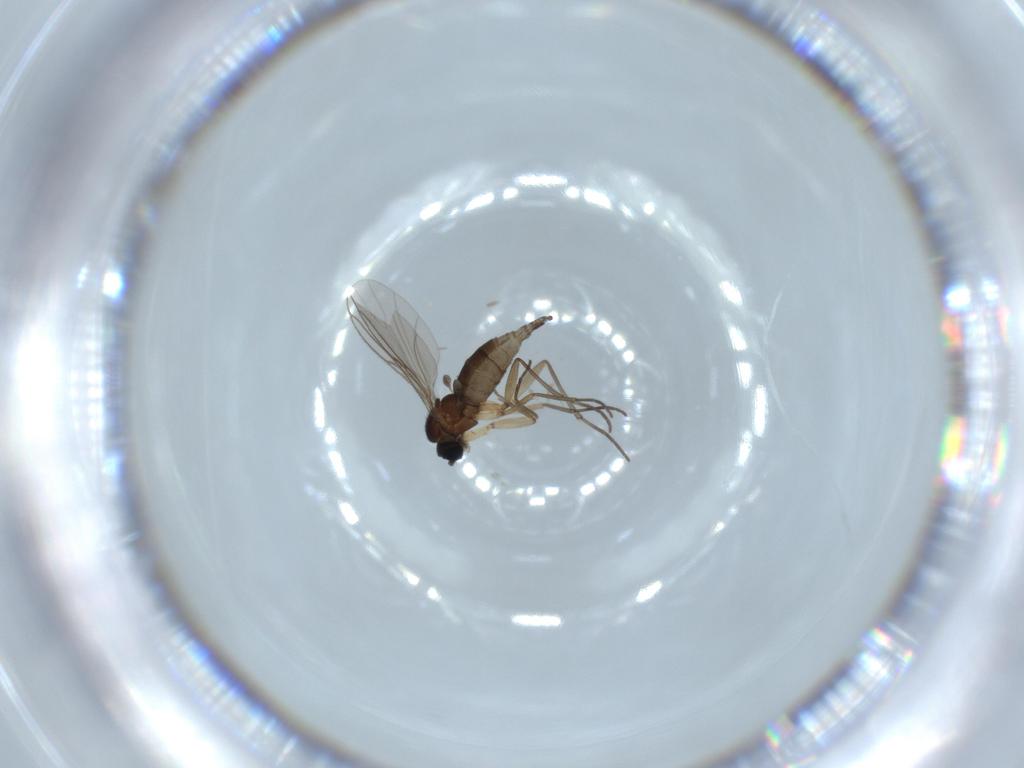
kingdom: Animalia
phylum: Arthropoda
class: Insecta
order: Diptera
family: Sciaridae
